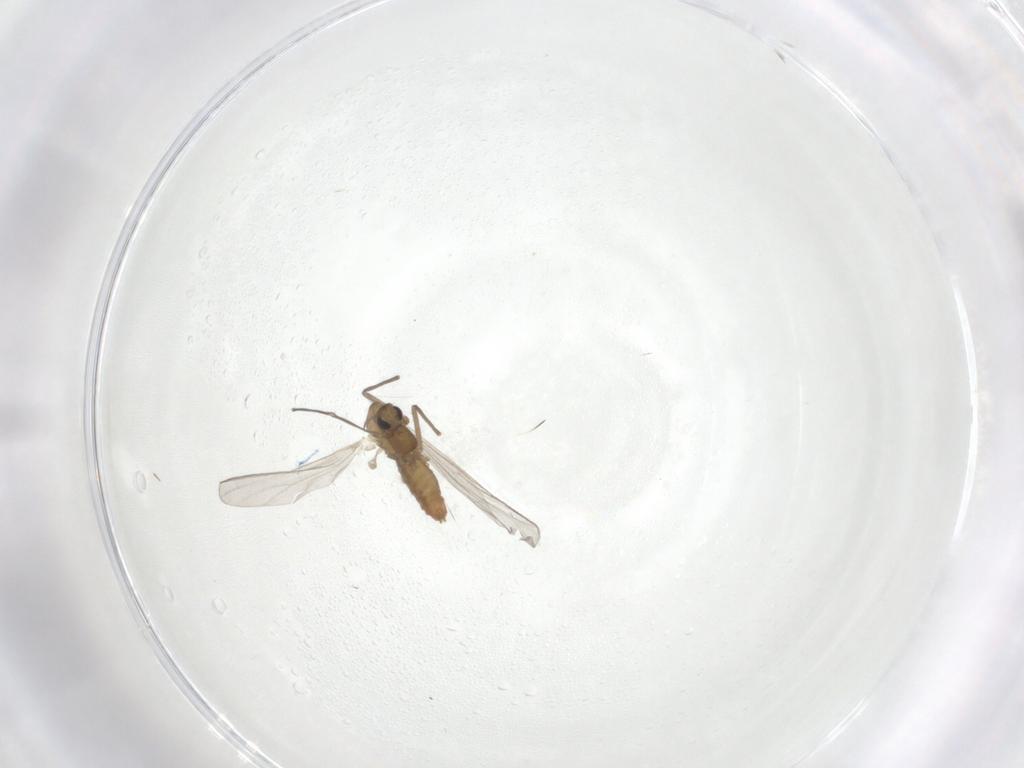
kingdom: Animalia
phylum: Arthropoda
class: Insecta
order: Diptera
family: Chironomidae
